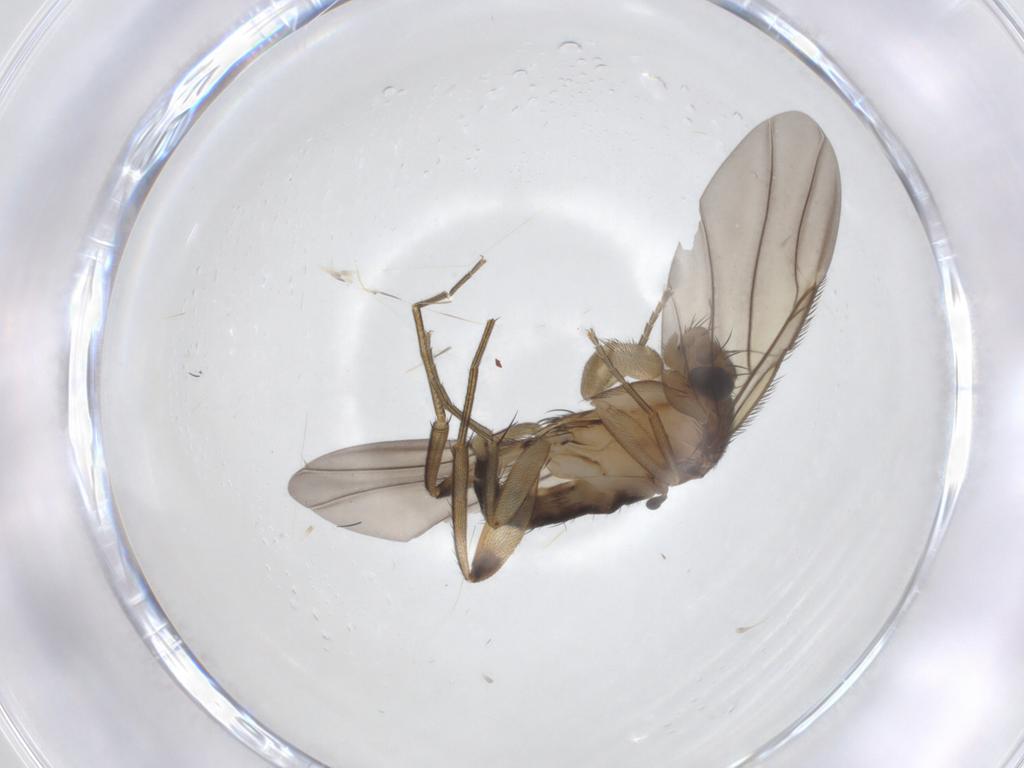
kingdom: Animalia
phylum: Arthropoda
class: Insecta
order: Diptera
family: Phoridae
